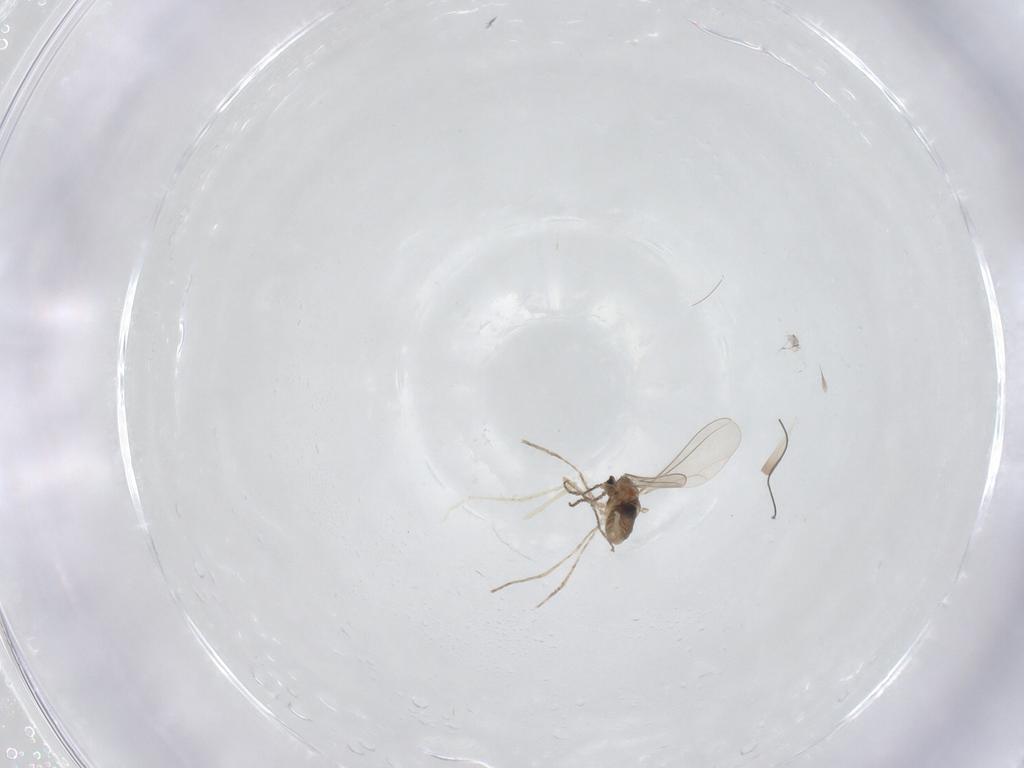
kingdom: Animalia
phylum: Arthropoda
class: Insecta
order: Diptera
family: Cecidomyiidae
